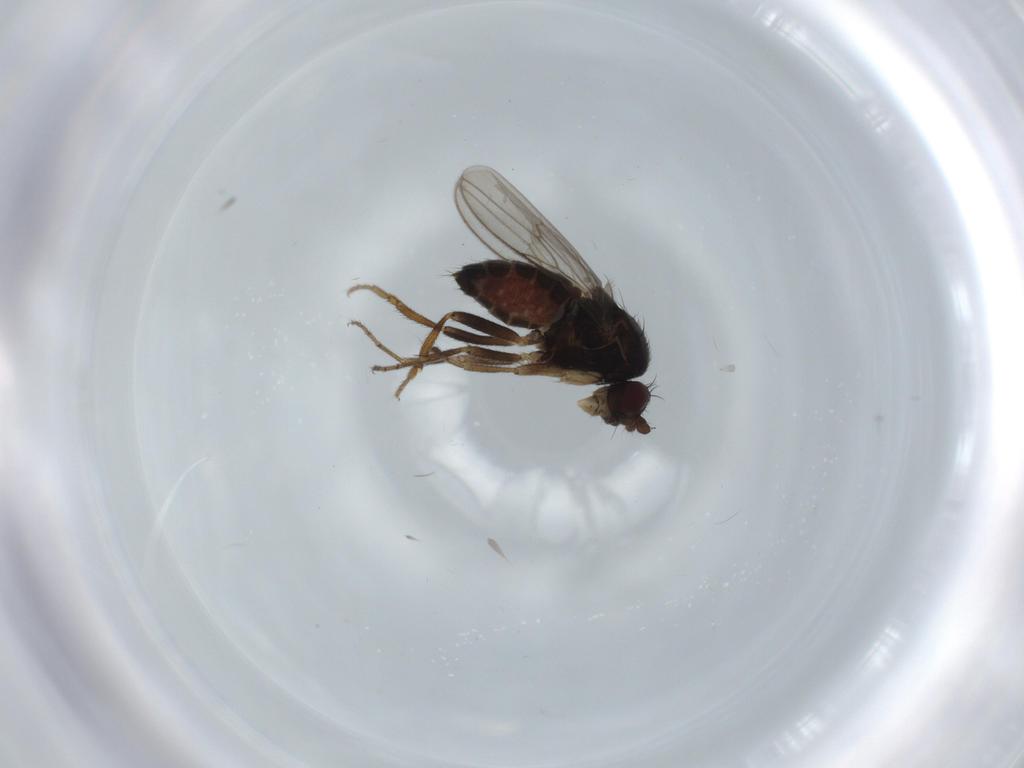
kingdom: Animalia
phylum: Arthropoda
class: Insecta
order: Diptera
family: Sphaeroceridae
